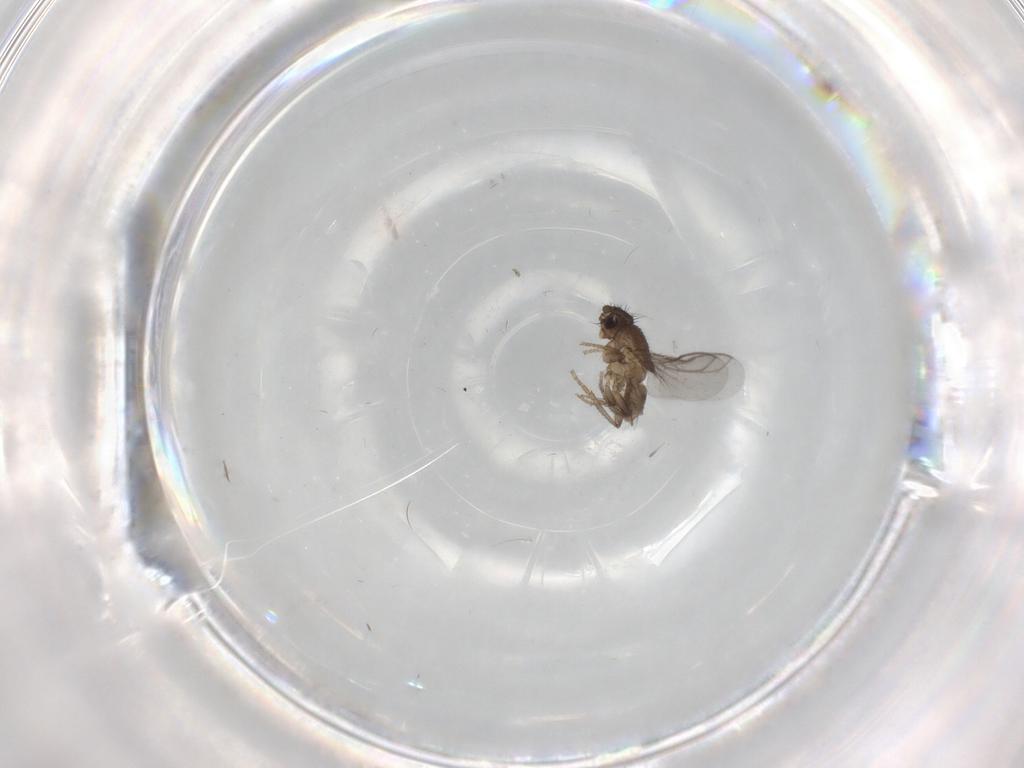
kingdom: Animalia
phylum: Arthropoda
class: Insecta
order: Diptera
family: Sphaeroceridae
